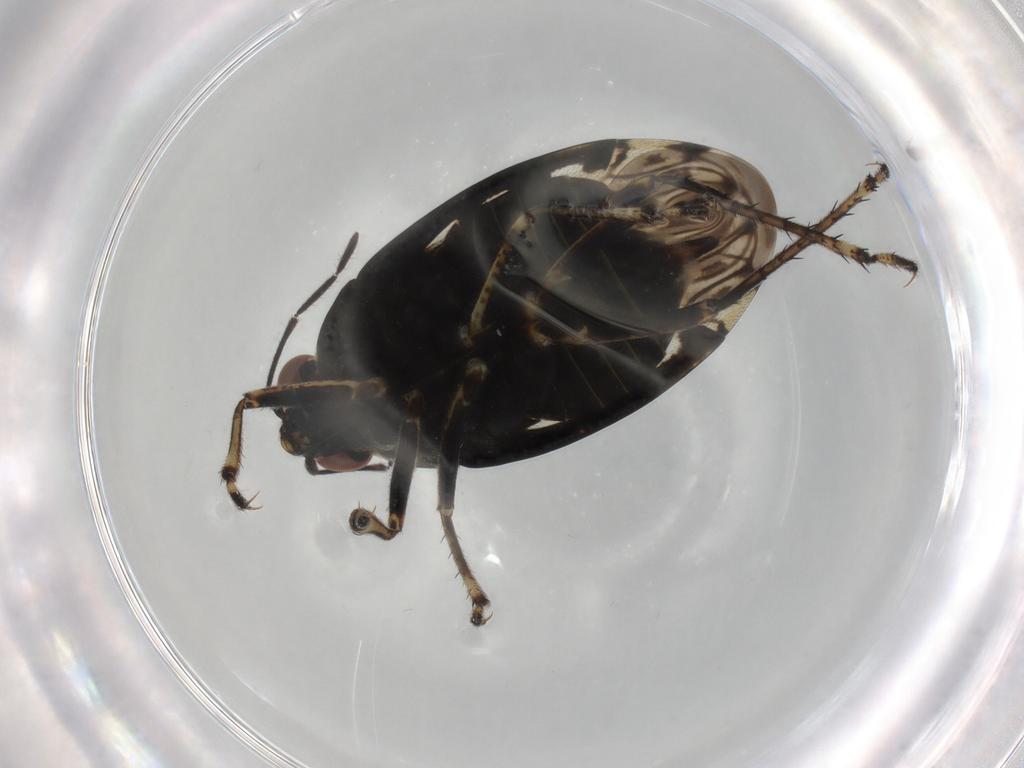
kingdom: Animalia
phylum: Arthropoda
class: Insecta
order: Hemiptera
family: Saldidae
